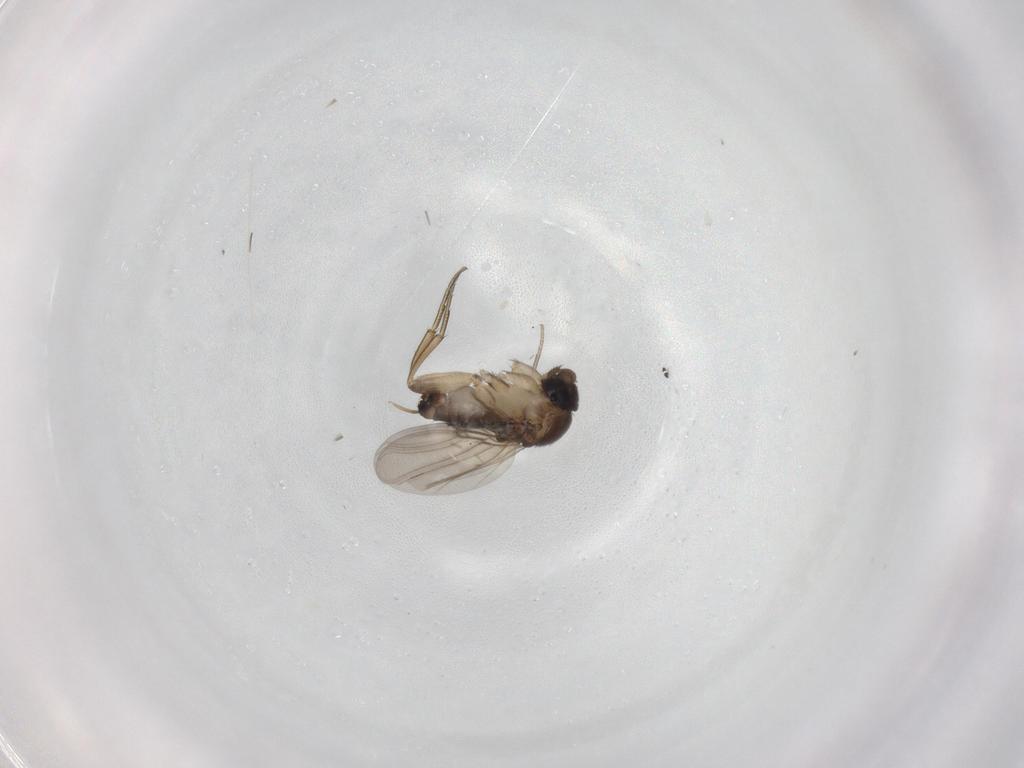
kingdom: Animalia
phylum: Arthropoda
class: Insecta
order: Diptera
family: Phoridae
